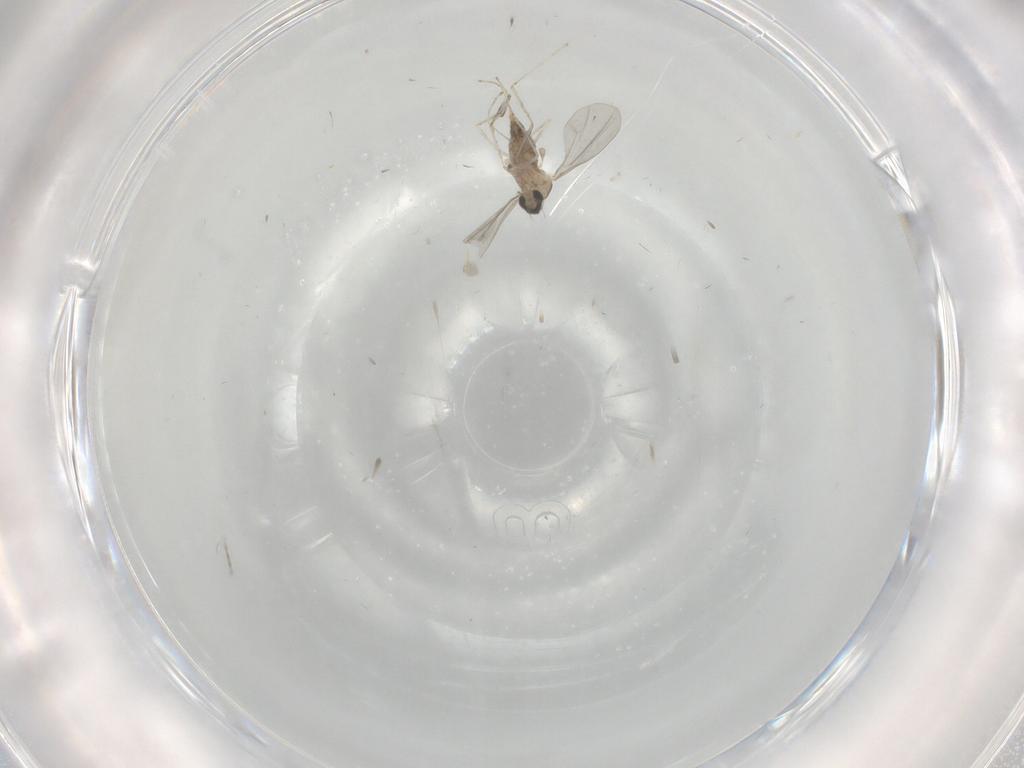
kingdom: Animalia
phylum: Arthropoda
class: Insecta
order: Diptera
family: Cecidomyiidae
